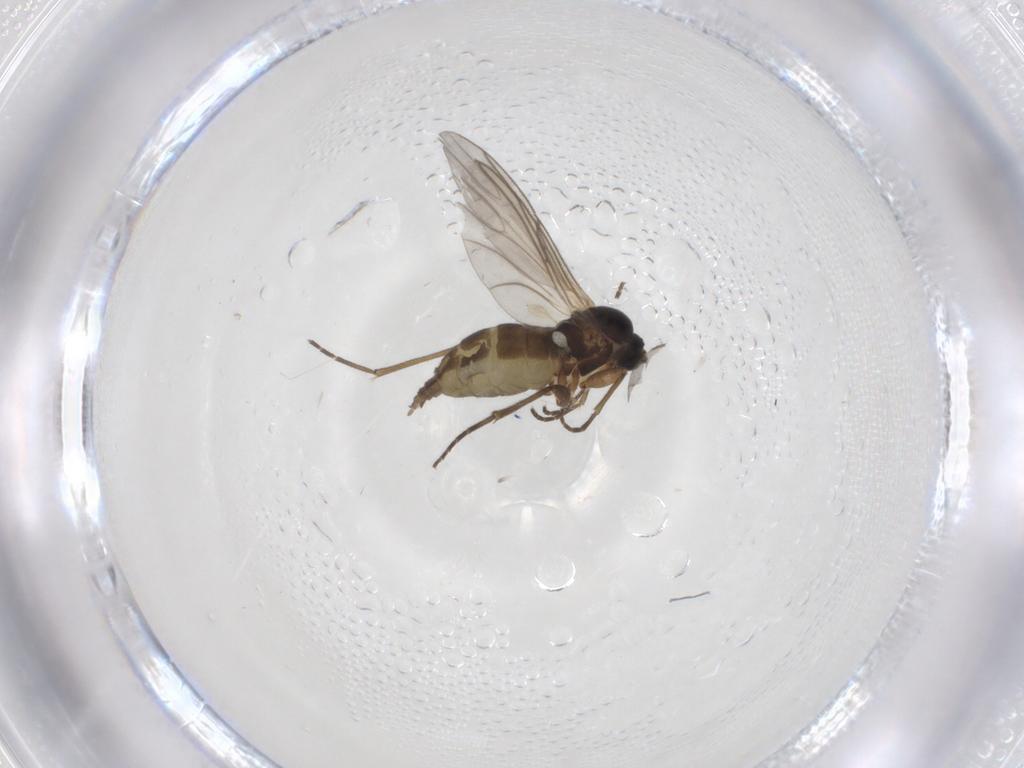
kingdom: Animalia
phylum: Arthropoda
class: Insecta
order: Diptera
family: Chironomidae
